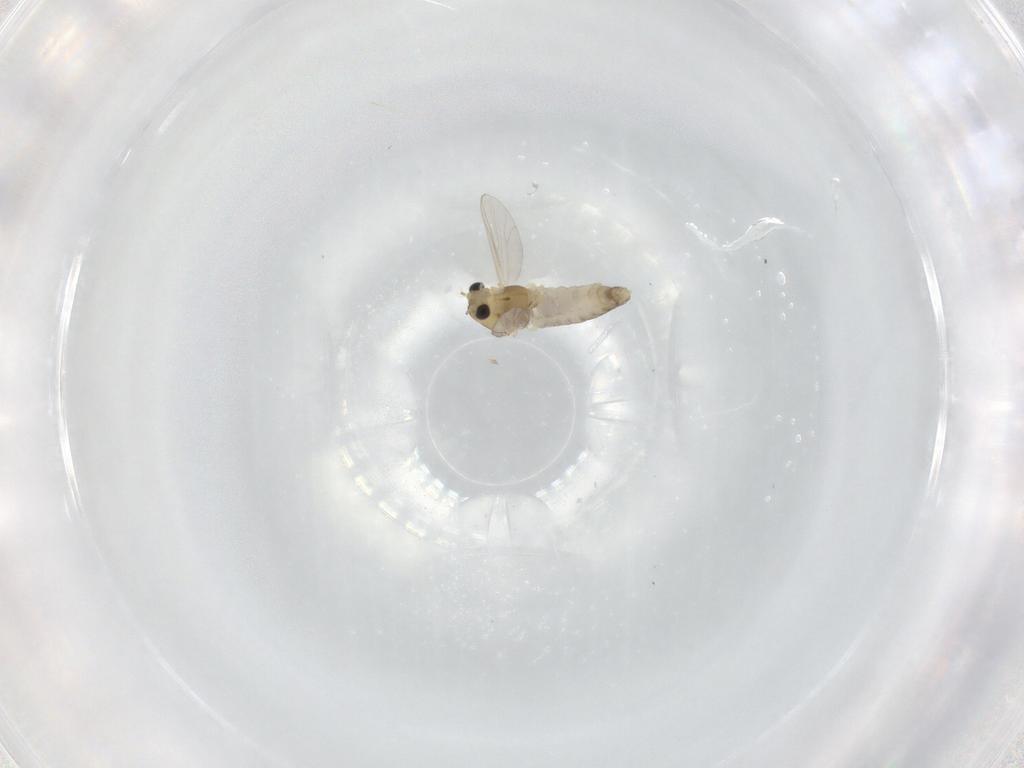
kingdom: Animalia
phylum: Arthropoda
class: Insecta
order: Diptera
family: Chironomidae
